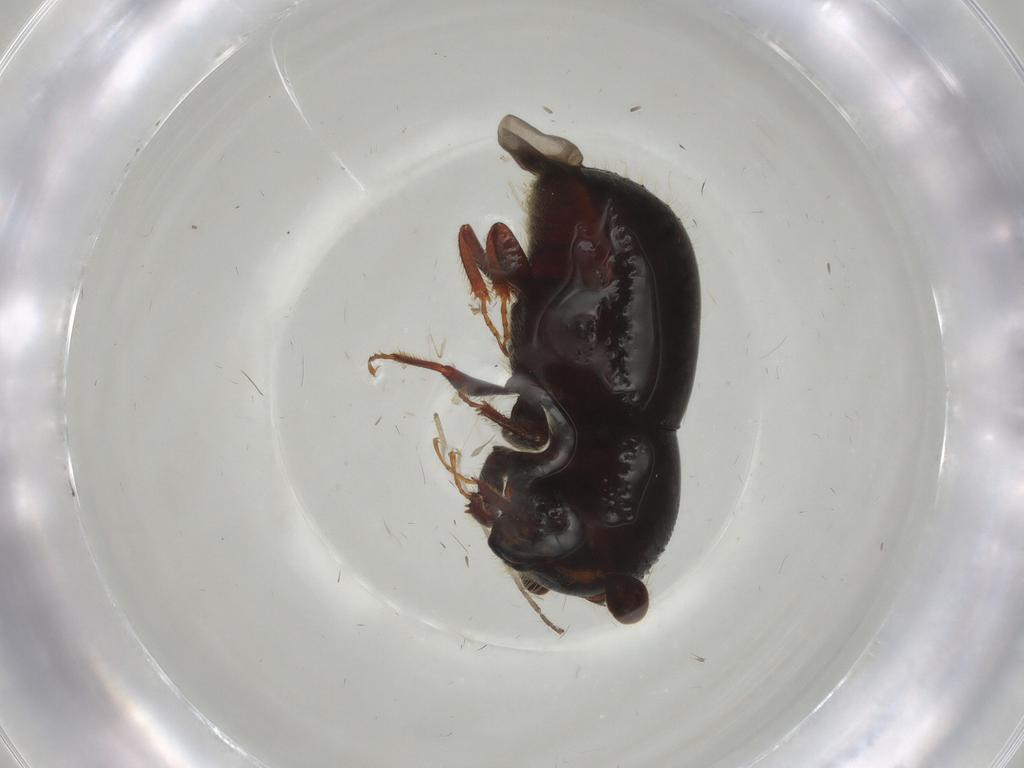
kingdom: Animalia
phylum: Arthropoda
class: Insecta
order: Coleoptera
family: Curculionidae
